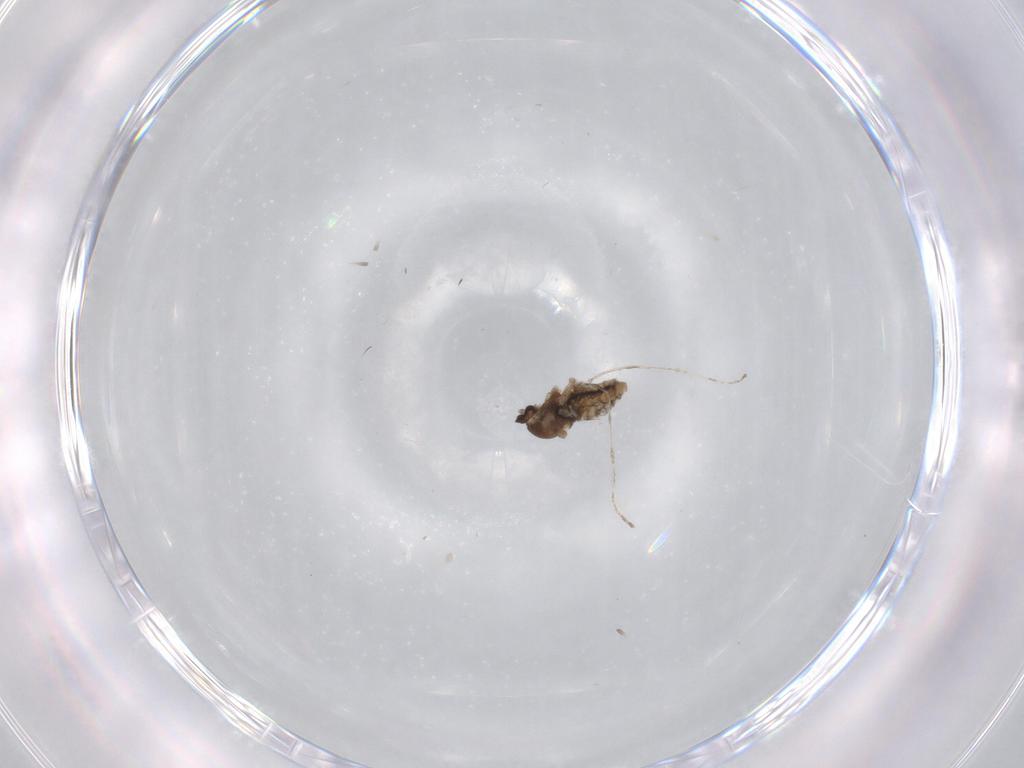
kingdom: Animalia
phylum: Arthropoda
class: Insecta
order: Diptera
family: Cecidomyiidae
